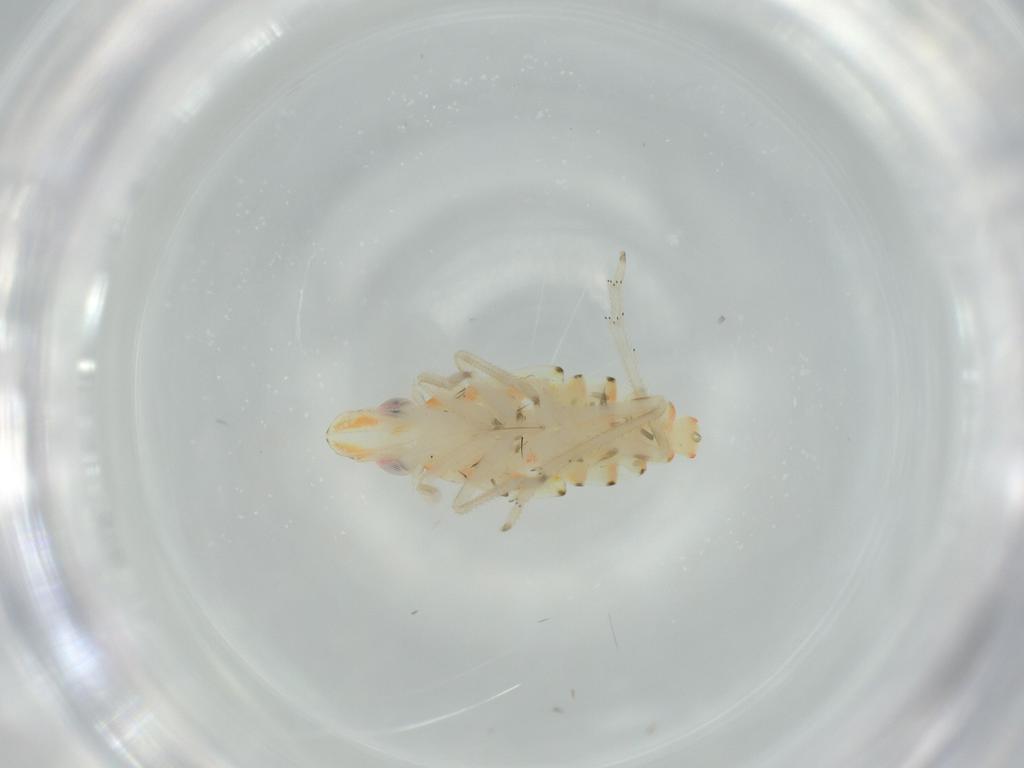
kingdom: Animalia
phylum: Arthropoda
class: Insecta
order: Hemiptera
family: Tropiduchidae
